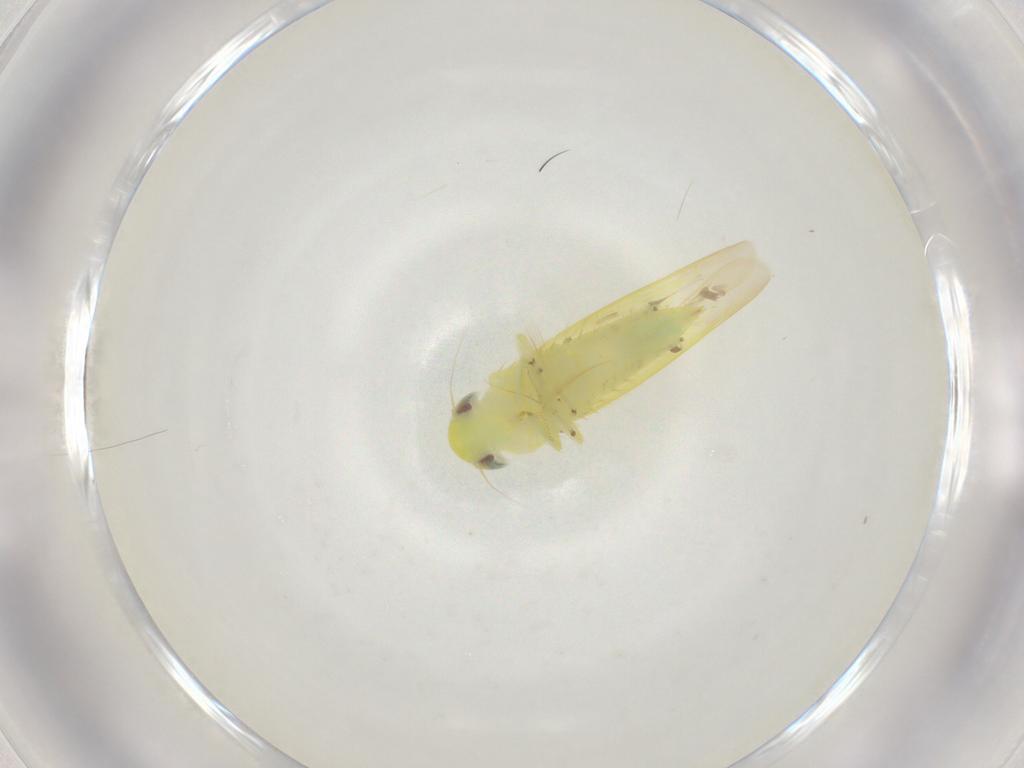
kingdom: Animalia
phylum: Arthropoda
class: Insecta
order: Hemiptera
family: Cicadellidae
